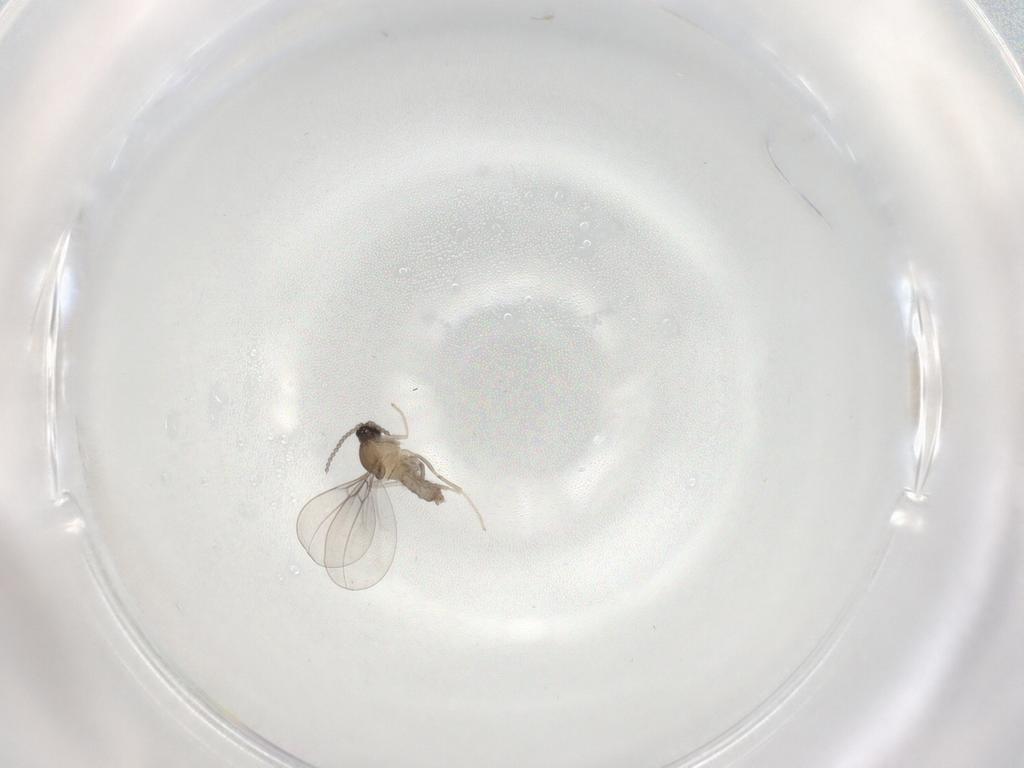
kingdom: Animalia
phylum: Arthropoda
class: Insecta
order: Diptera
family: Cecidomyiidae
